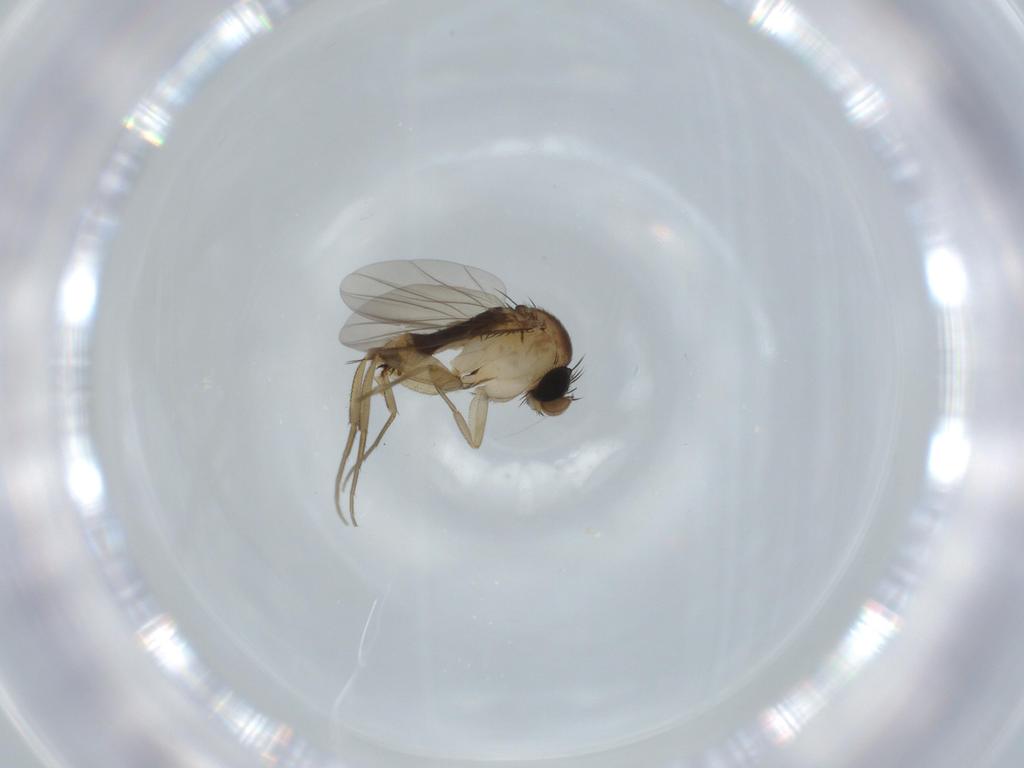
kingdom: Animalia
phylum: Arthropoda
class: Insecta
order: Diptera
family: Phoridae
